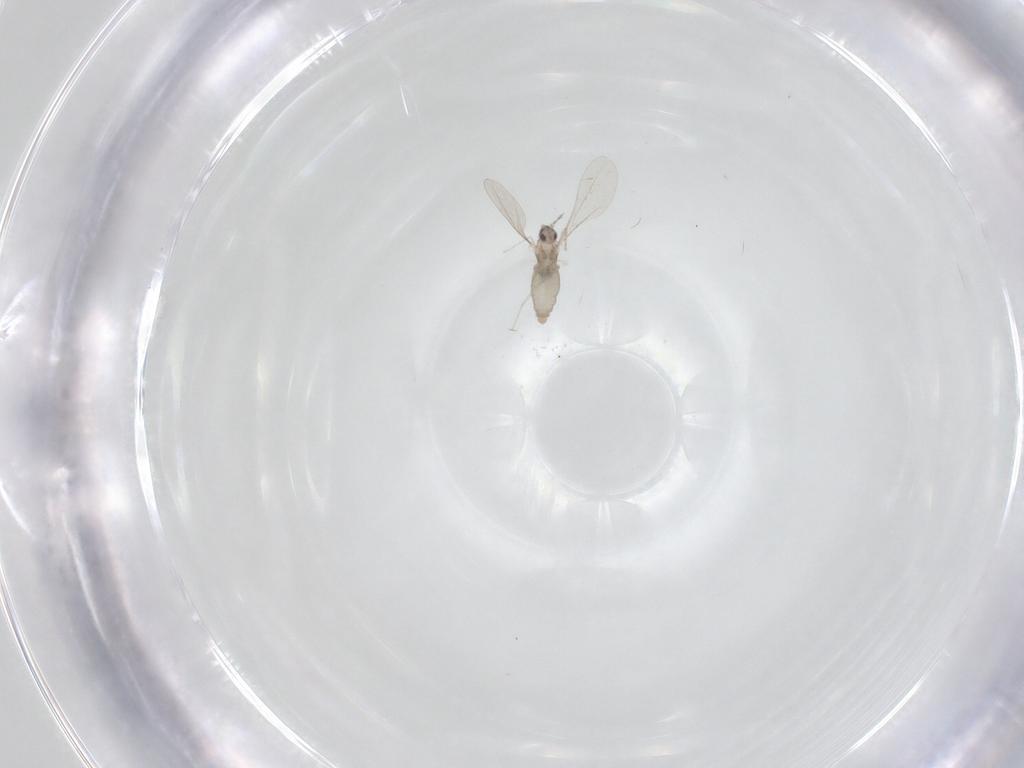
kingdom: Animalia
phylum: Arthropoda
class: Insecta
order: Diptera
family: Cecidomyiidae
